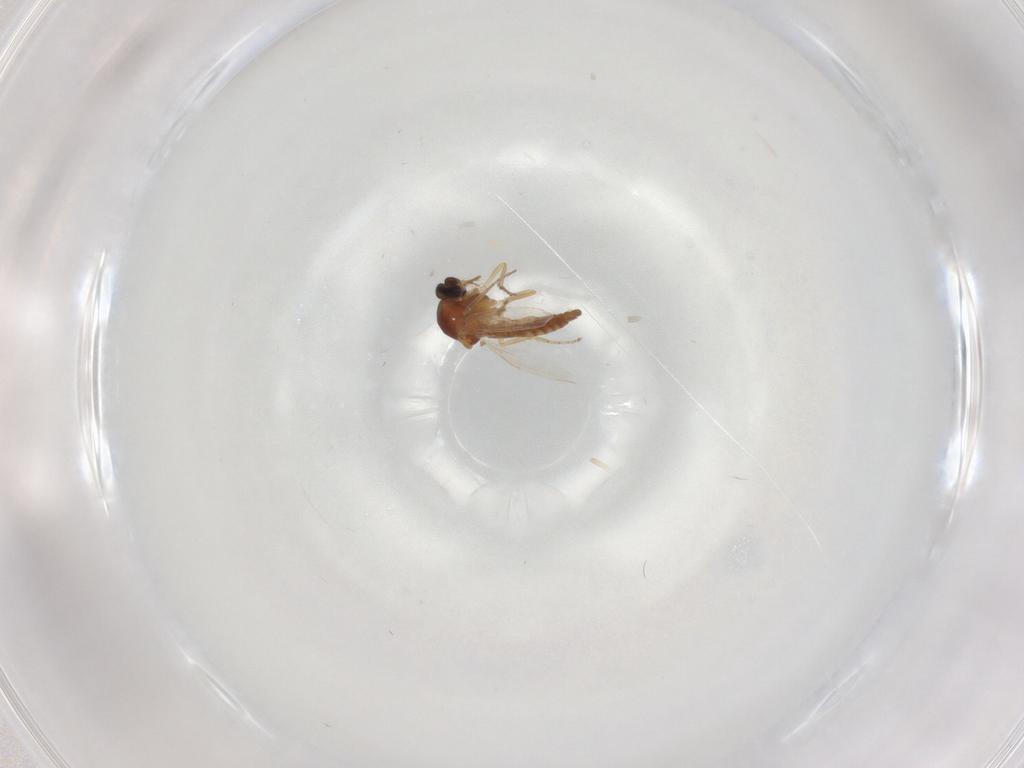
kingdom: Animalia
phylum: Arthropoda
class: Insecta
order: Diptera
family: Ceratopogonidae
